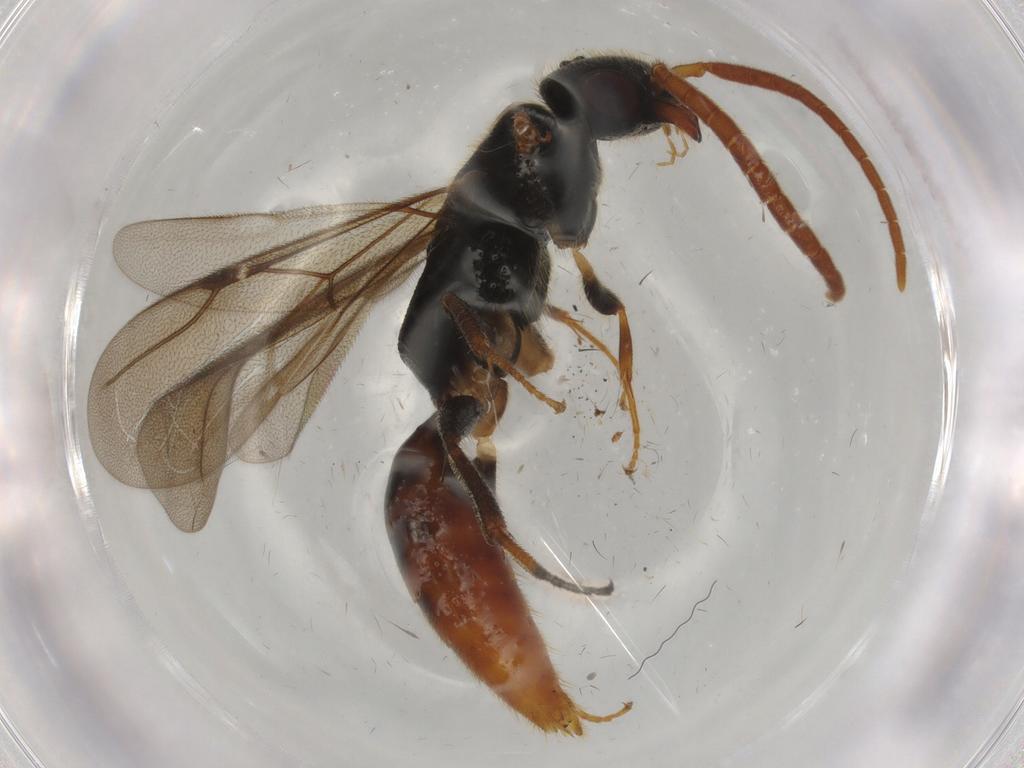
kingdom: Animalia
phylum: Arthropoda
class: Insecta
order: Hymenoptera
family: Bethylidae
